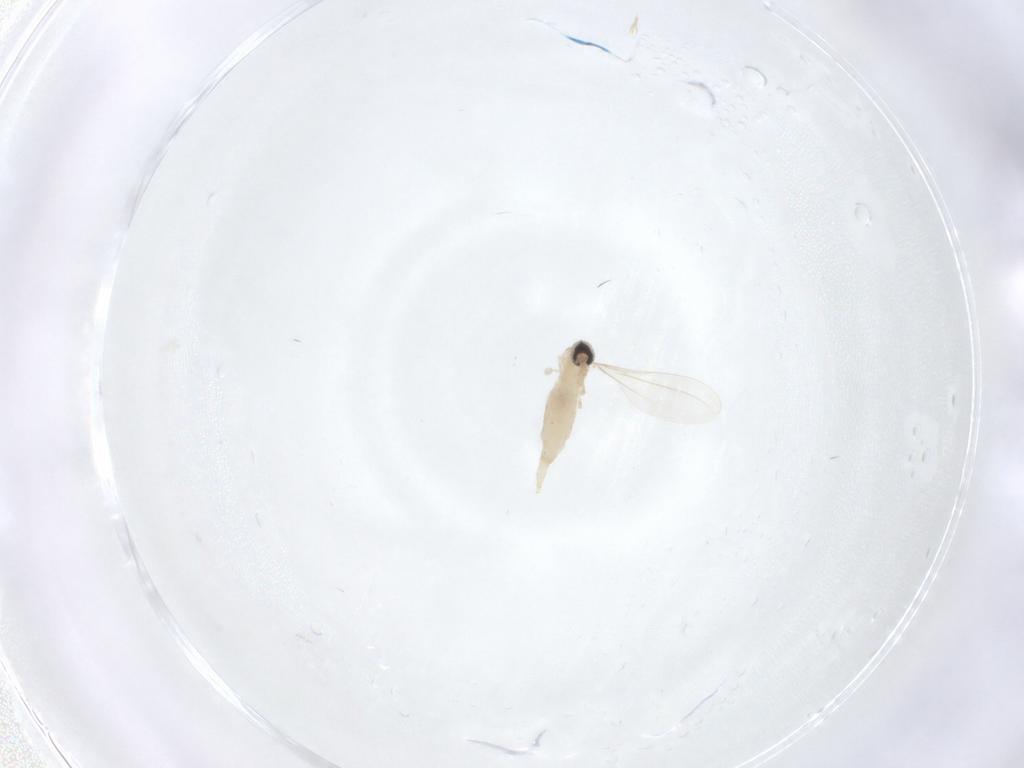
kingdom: Animalia
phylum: Arthropoda
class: Insecta
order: Diptera
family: Cecidomyiidae
